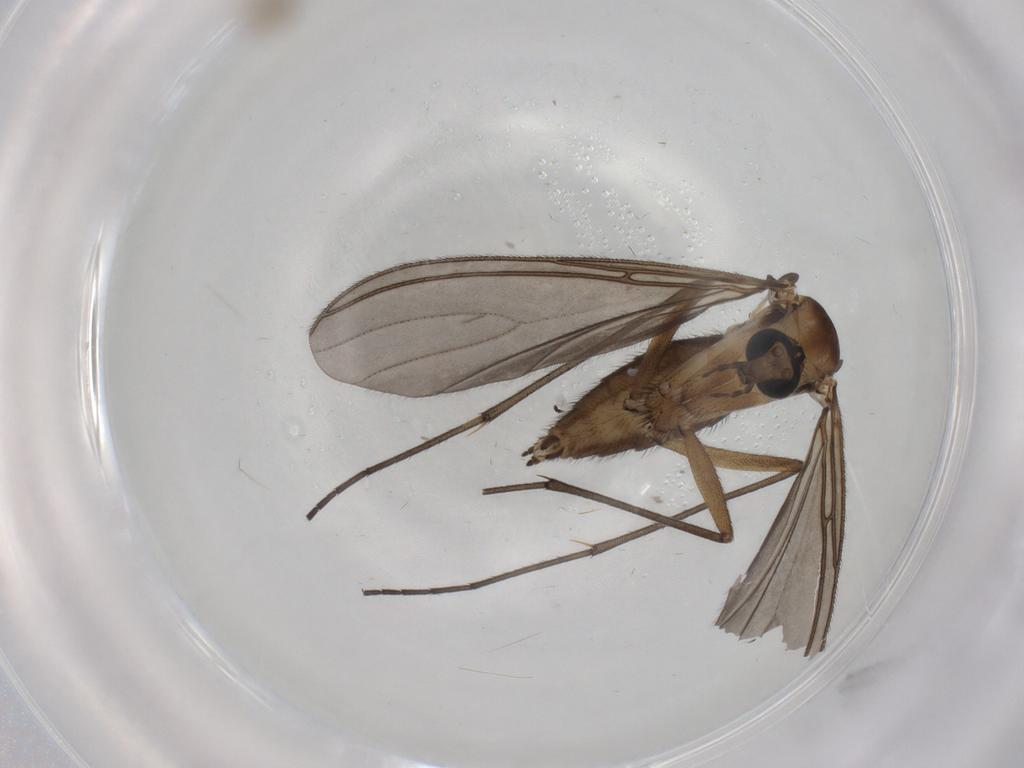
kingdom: Animalia
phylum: Arthropoda
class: Insecta
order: Diptera
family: Sciaridae
